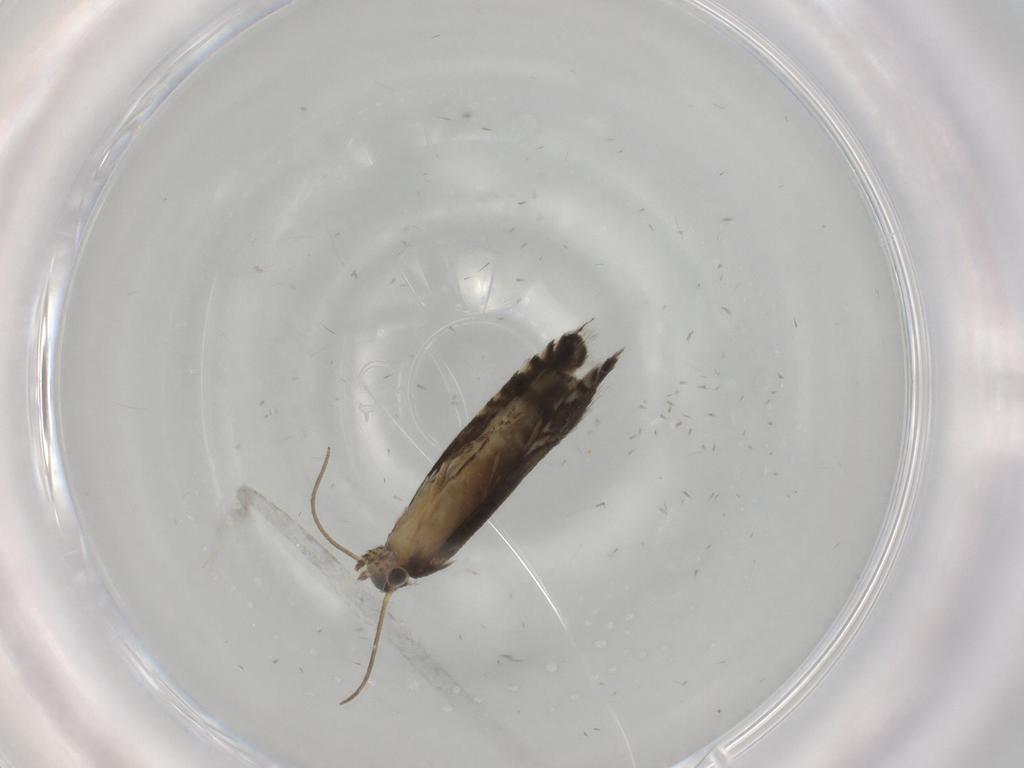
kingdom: Animalia
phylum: Arthropoda
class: Insecta
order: Lepidoptera
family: Glyphipterigidae
